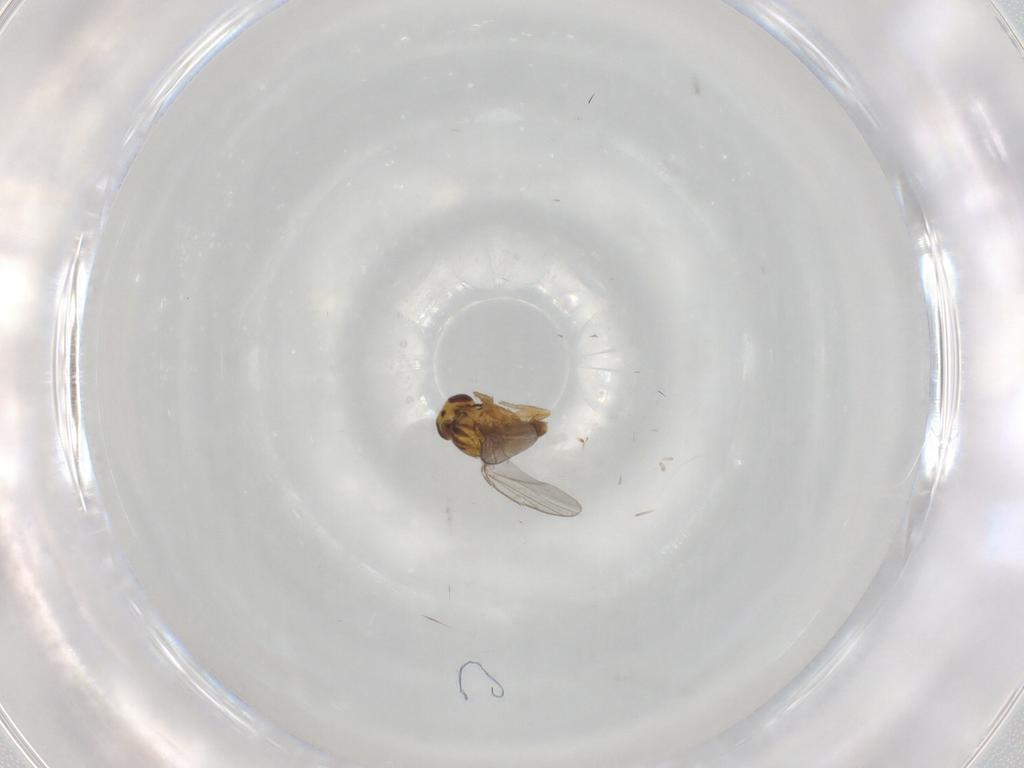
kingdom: Animalia
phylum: Arthropoda
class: Insecta
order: Diptera
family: Chloropidae
